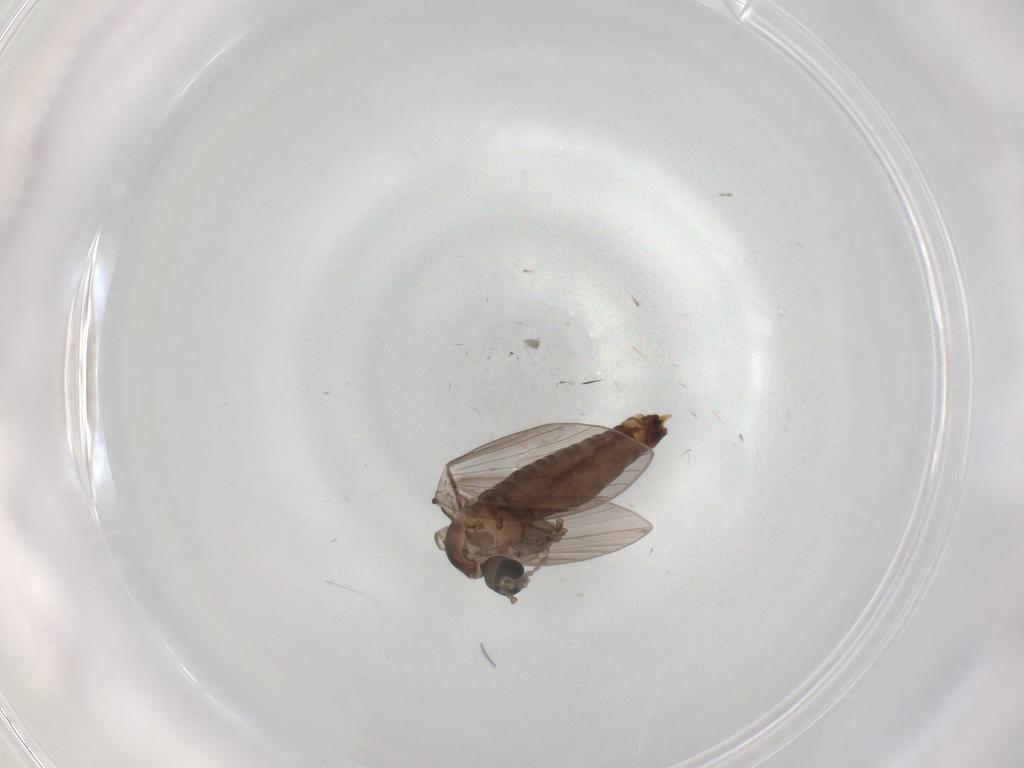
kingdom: Animalia
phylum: Arthropoda
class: Insecta
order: Diptera
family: Psychodidae
